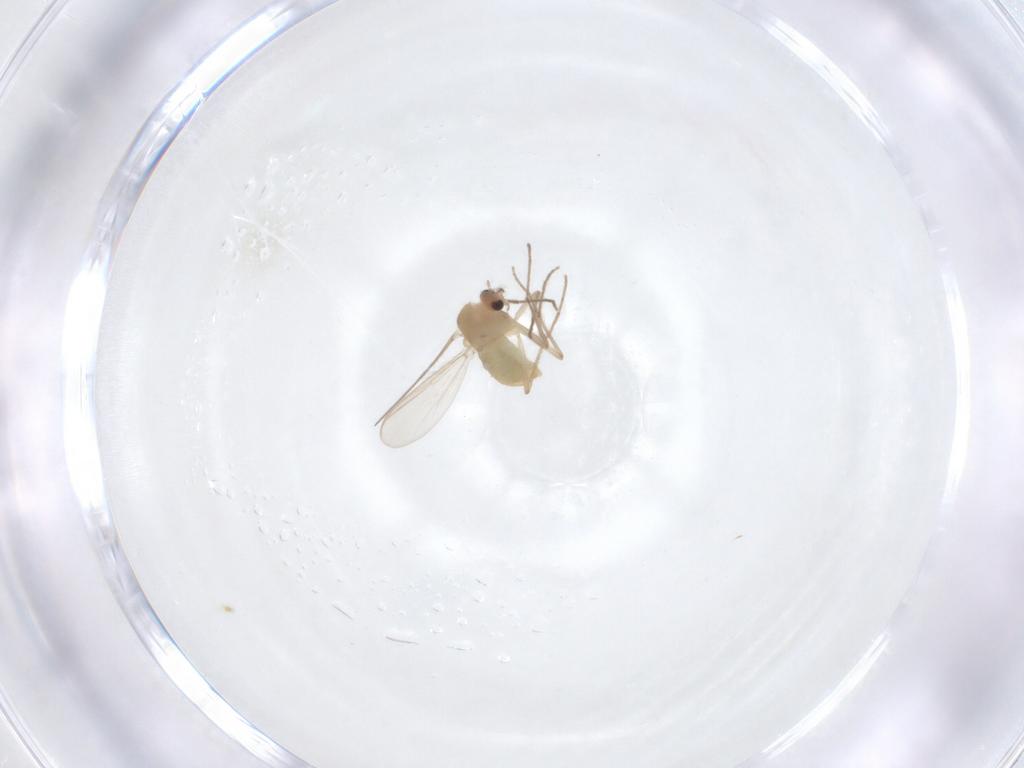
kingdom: Animalia
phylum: Arthropoda
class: Insecta
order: Diptera
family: Chironomidae
